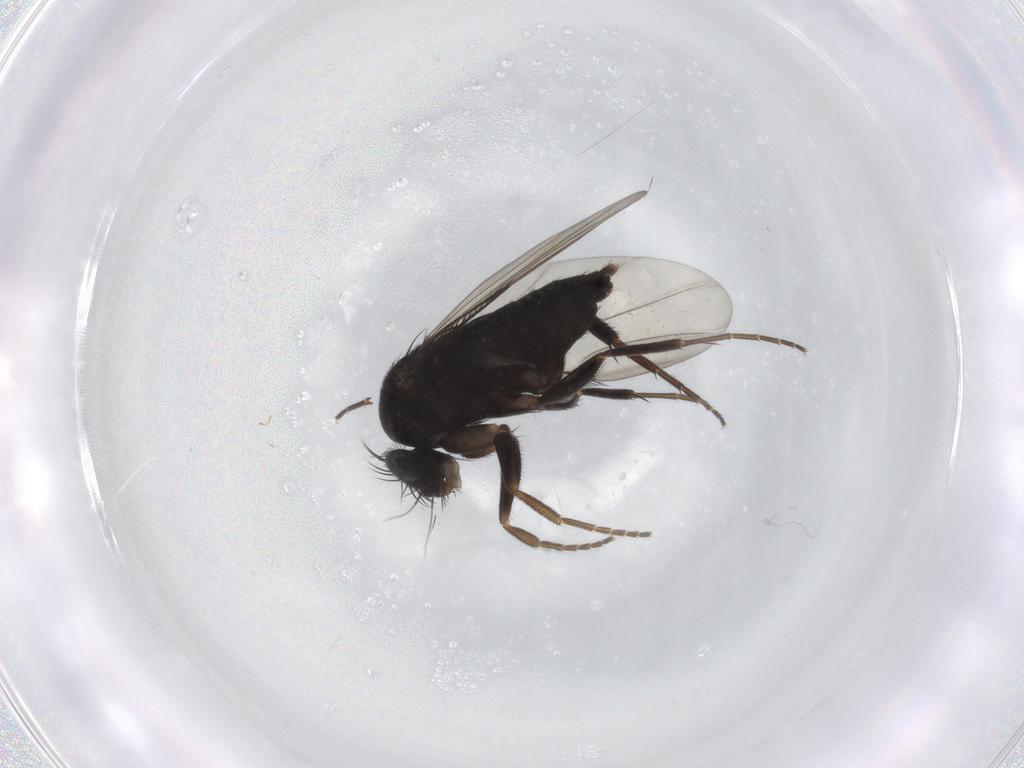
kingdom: Animalia
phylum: Arthropoda
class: Insecta
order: Diptera
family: Phoridae
